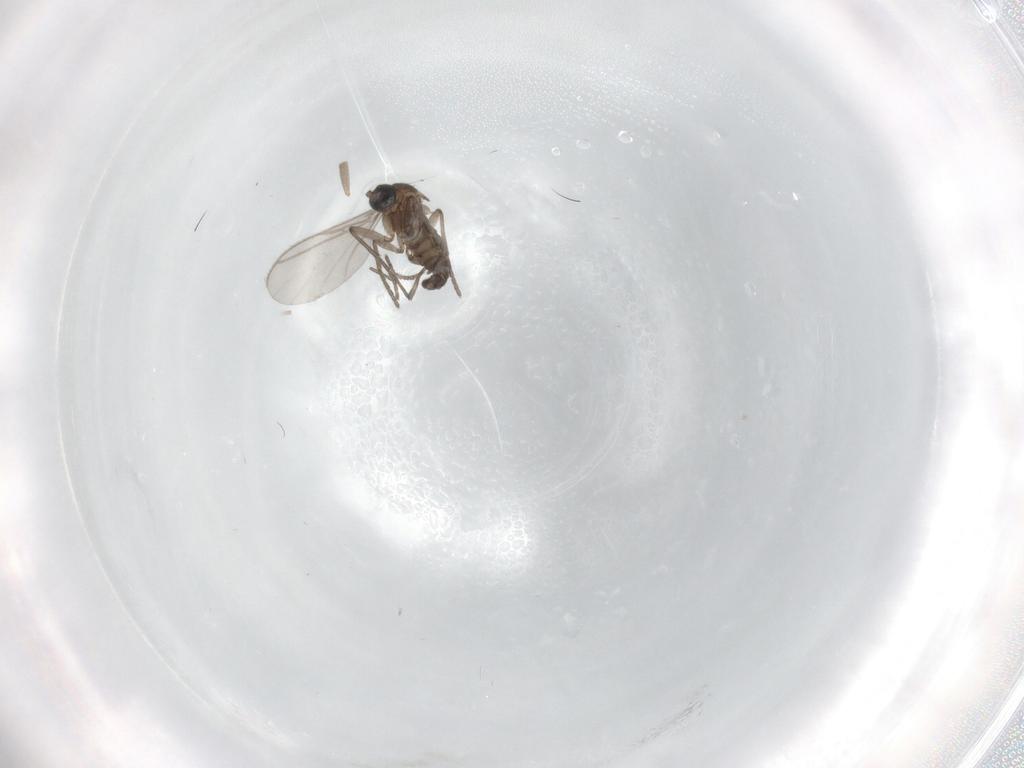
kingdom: Animalia
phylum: Arthropoda
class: Insecta
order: Diptera
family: Sciaridae
